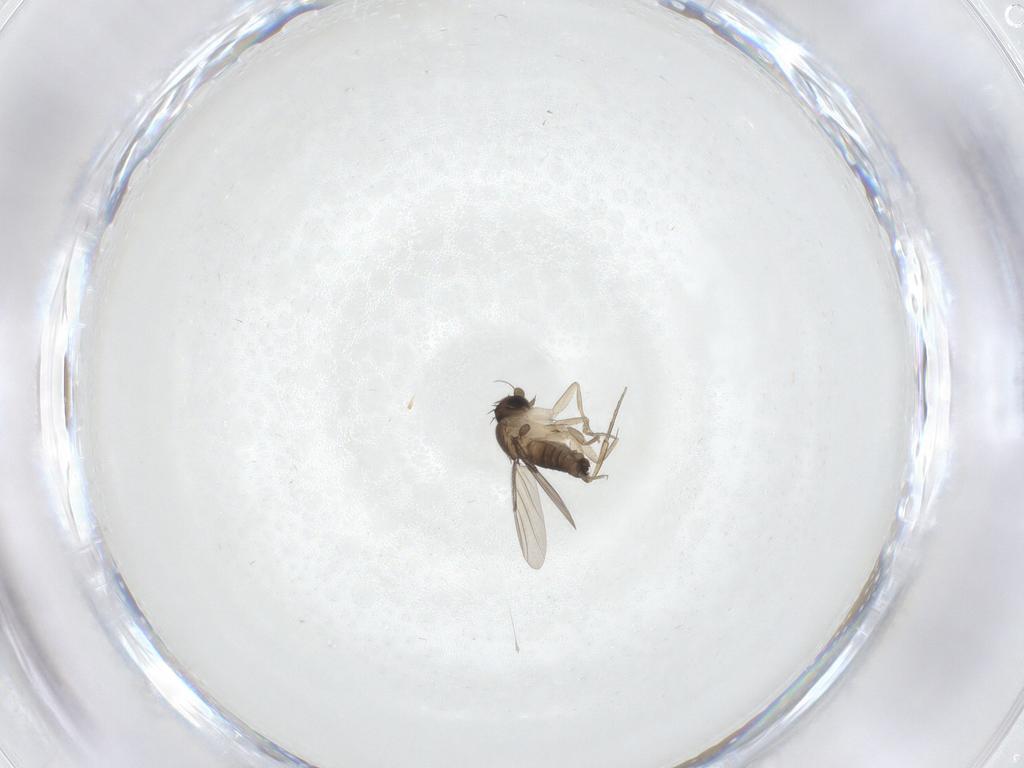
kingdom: Animalia
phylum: Arthropoda
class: Insecta
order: Diptera
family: Phoridae
